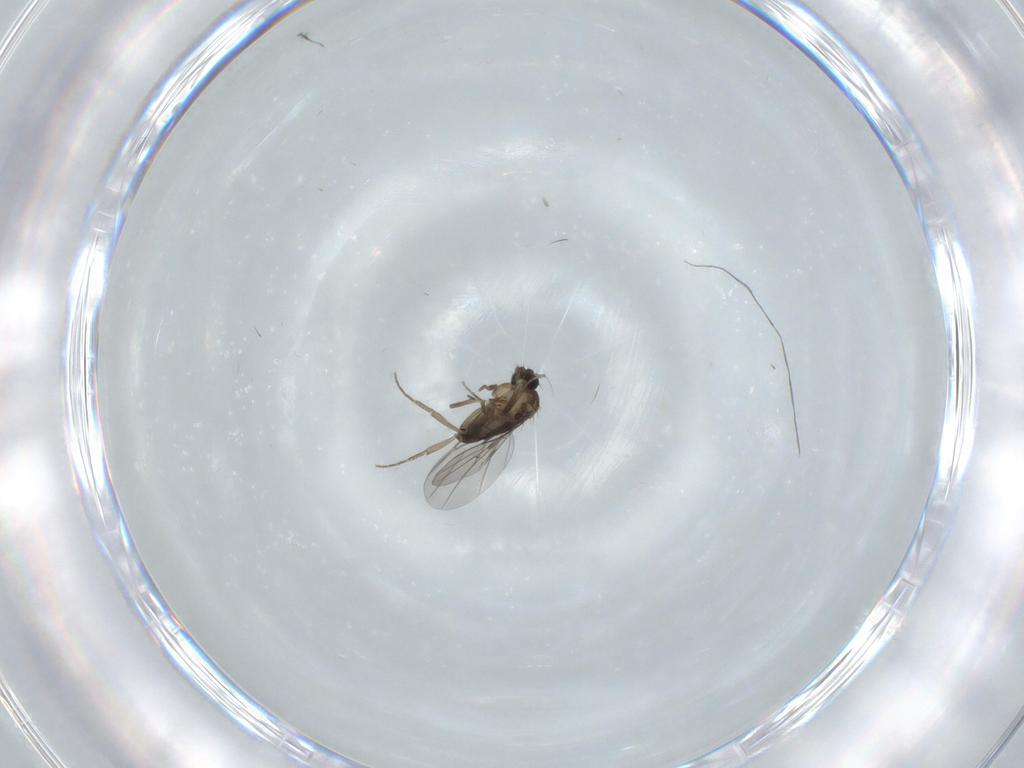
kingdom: Animalia
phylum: Arthropoda
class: Insecta
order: Diptera
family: Phoridae
